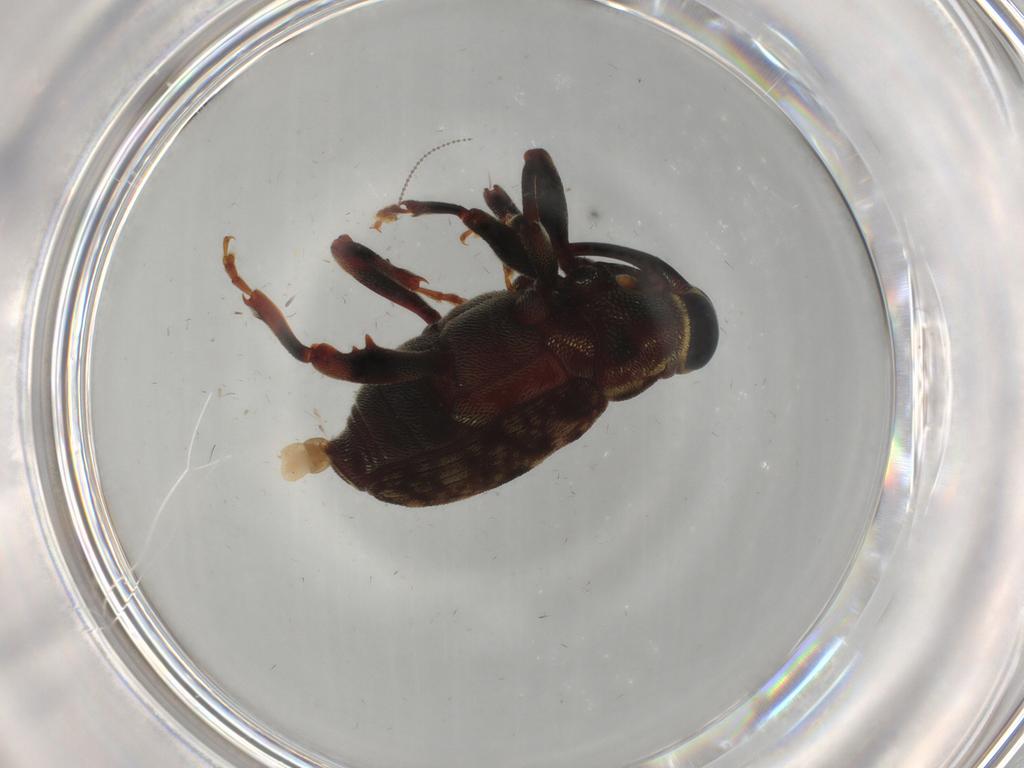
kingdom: Animalia
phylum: Arthropoda
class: Insecta
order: Coleoptera
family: Curculionidae
